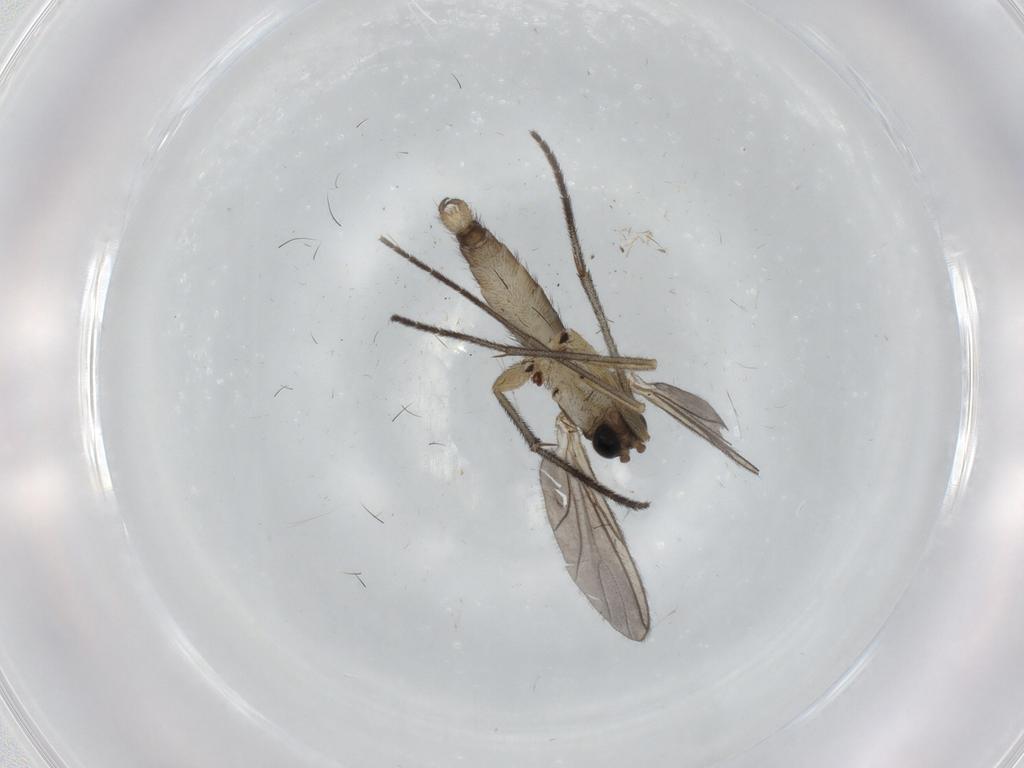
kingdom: Animalia
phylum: Arthropoda
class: Insecta
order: Diptera
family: Sciaridae
